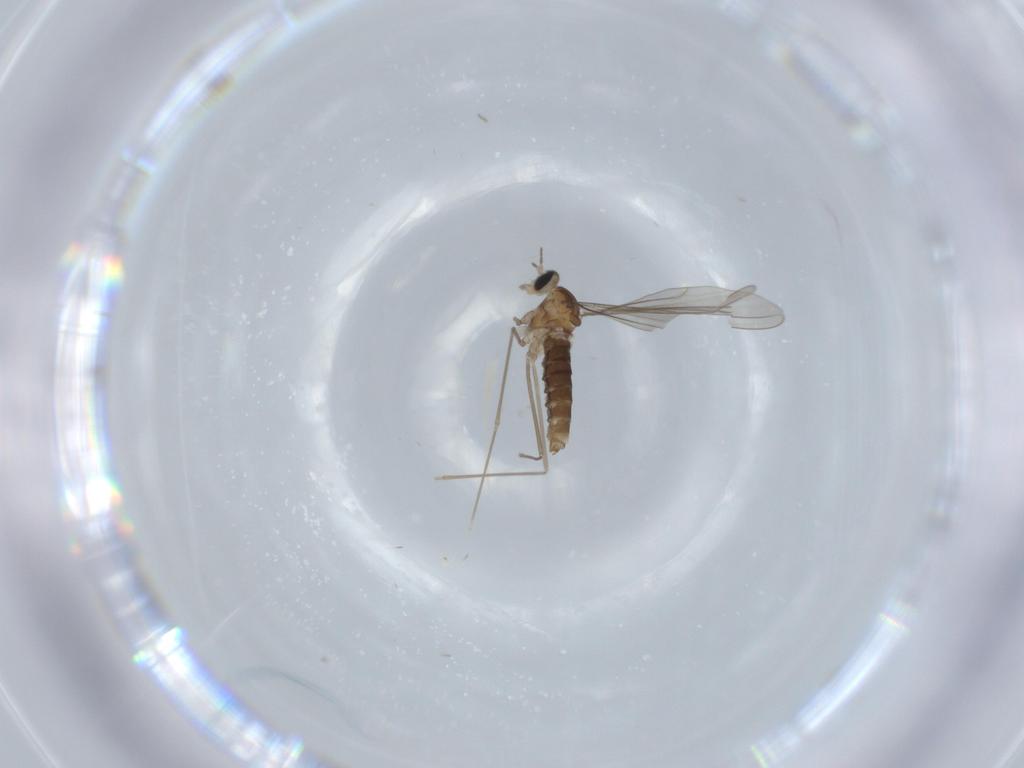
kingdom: Animalia
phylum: Arthropoda
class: Insecta
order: Diptera
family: Cecidomyiidae
